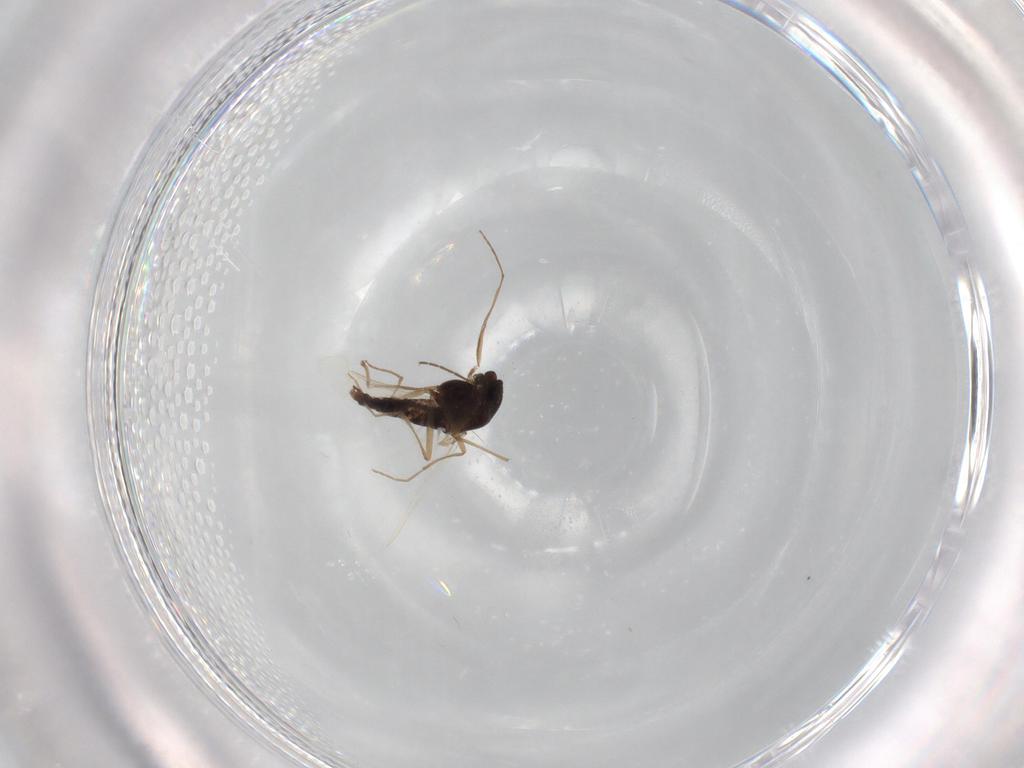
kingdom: Animalia
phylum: Arthropoda
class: Insecta
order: Diptera
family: Chironomidae
